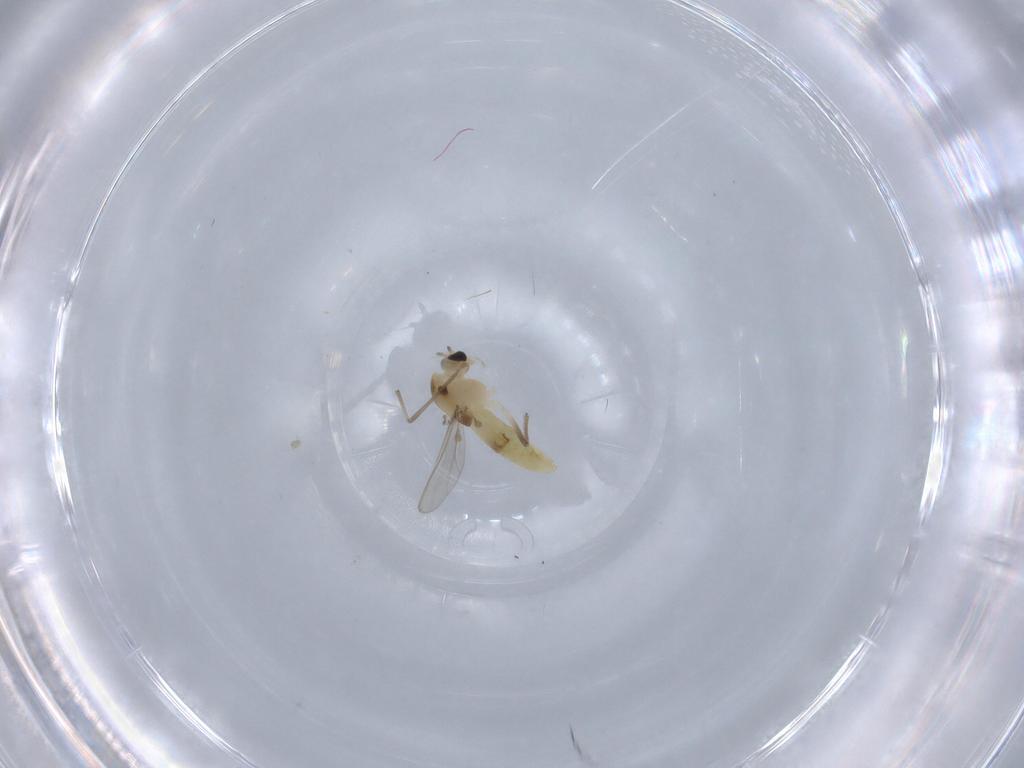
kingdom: Animalia
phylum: Arthropoda
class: Insecta
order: Diptera
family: Chironomidae
